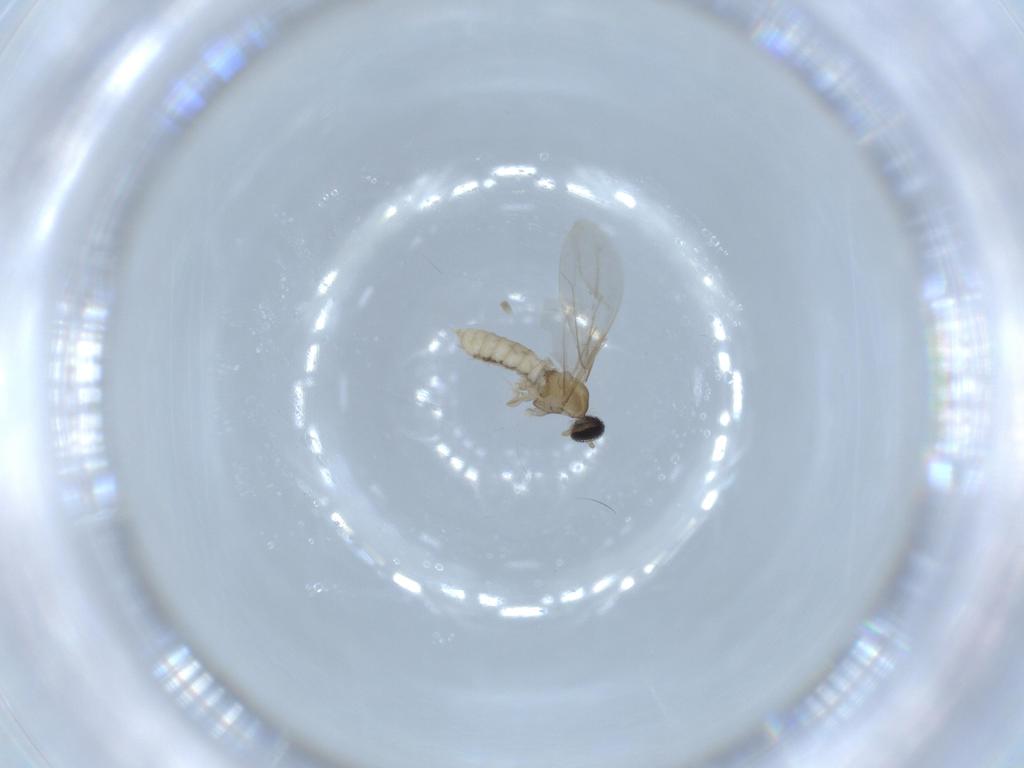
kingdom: Animalia
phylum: Arthropoda
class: Insecta
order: Diptera
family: Cecidomyiidae
